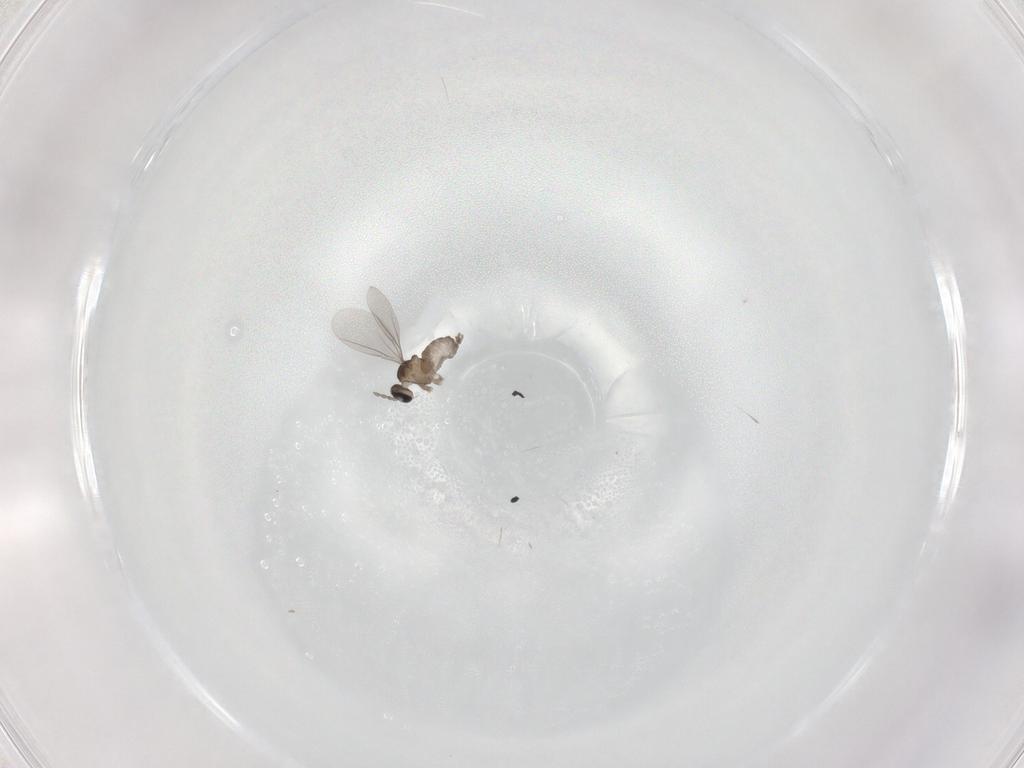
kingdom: Animalia
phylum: Arthropoda
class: Insecta
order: Diptera
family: Cecidomyiidae
